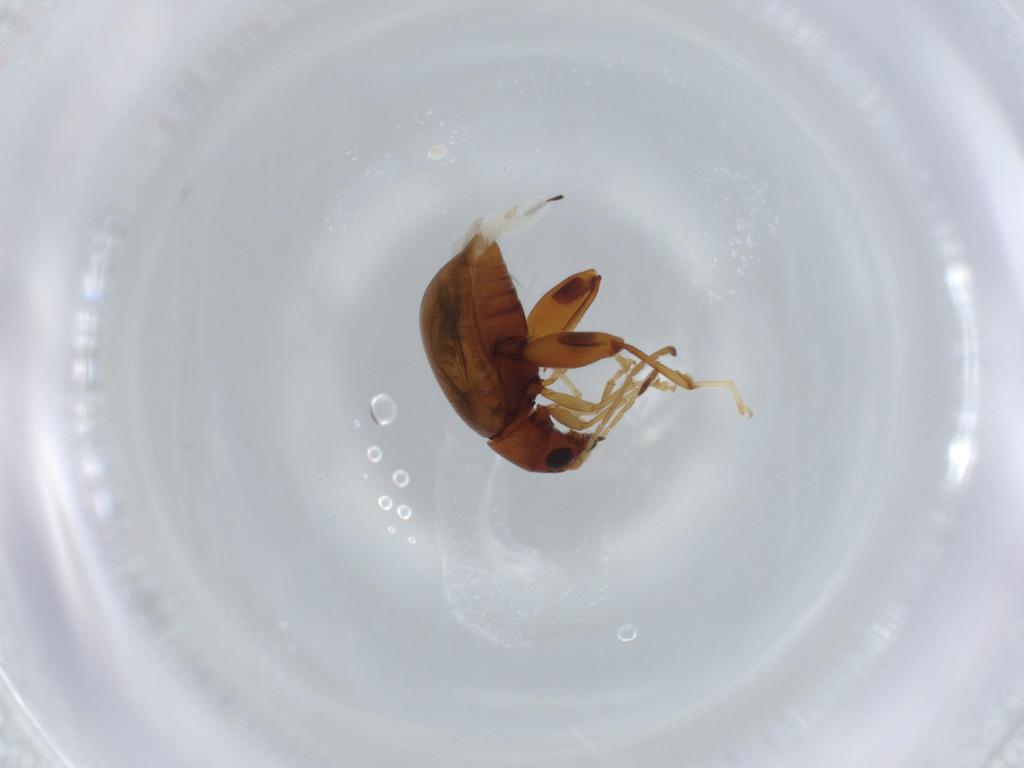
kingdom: Animalia
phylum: Arthropoda
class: Insecta
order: Coleoptera
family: Chrysomelidae
